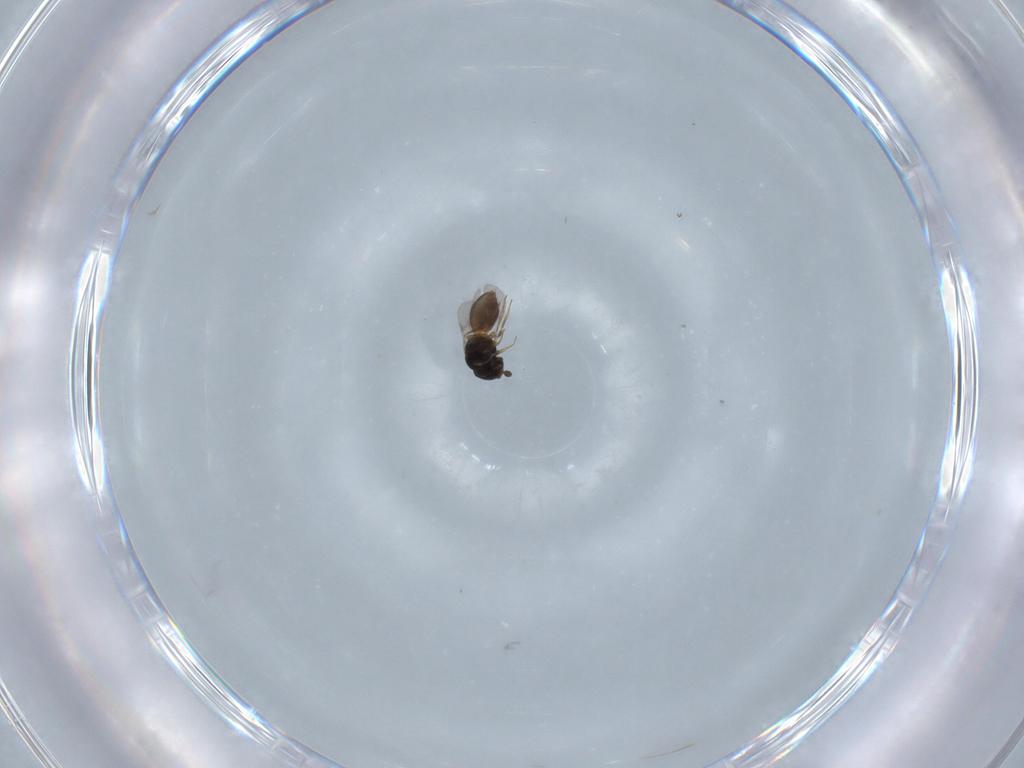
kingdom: Animalia
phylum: Arthropoda
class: Insecta
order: Hymenoptera
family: Scelionidae
